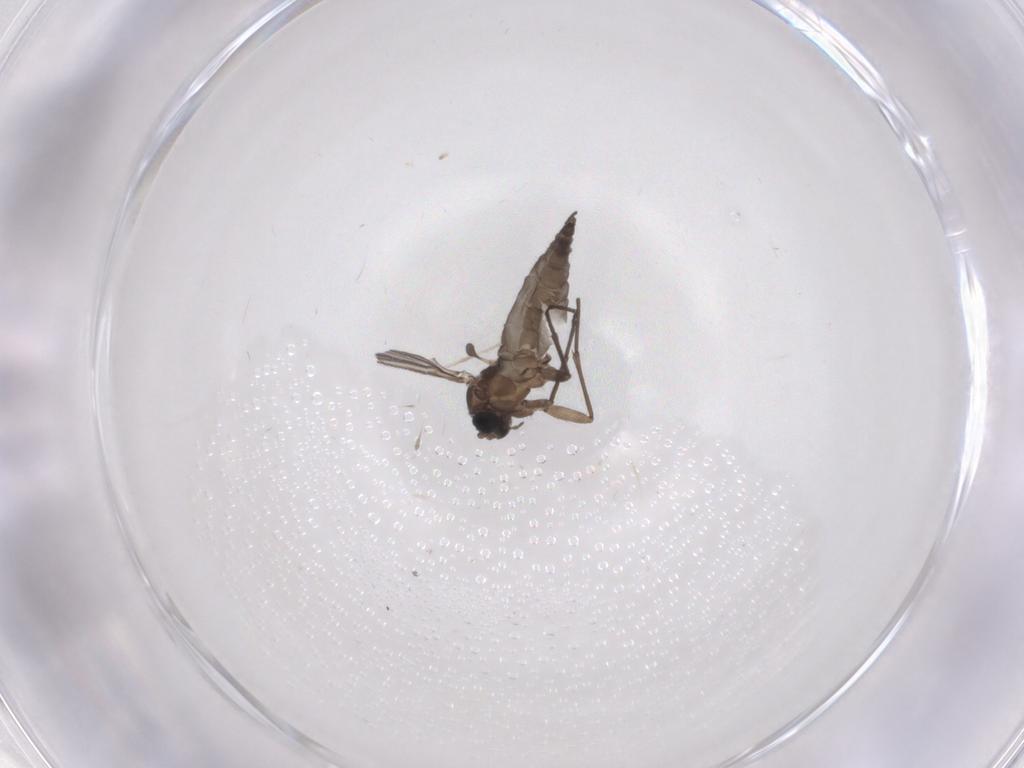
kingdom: Animalia
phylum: Arthropoda
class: Insecta
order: Diptera
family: Sciaridae
